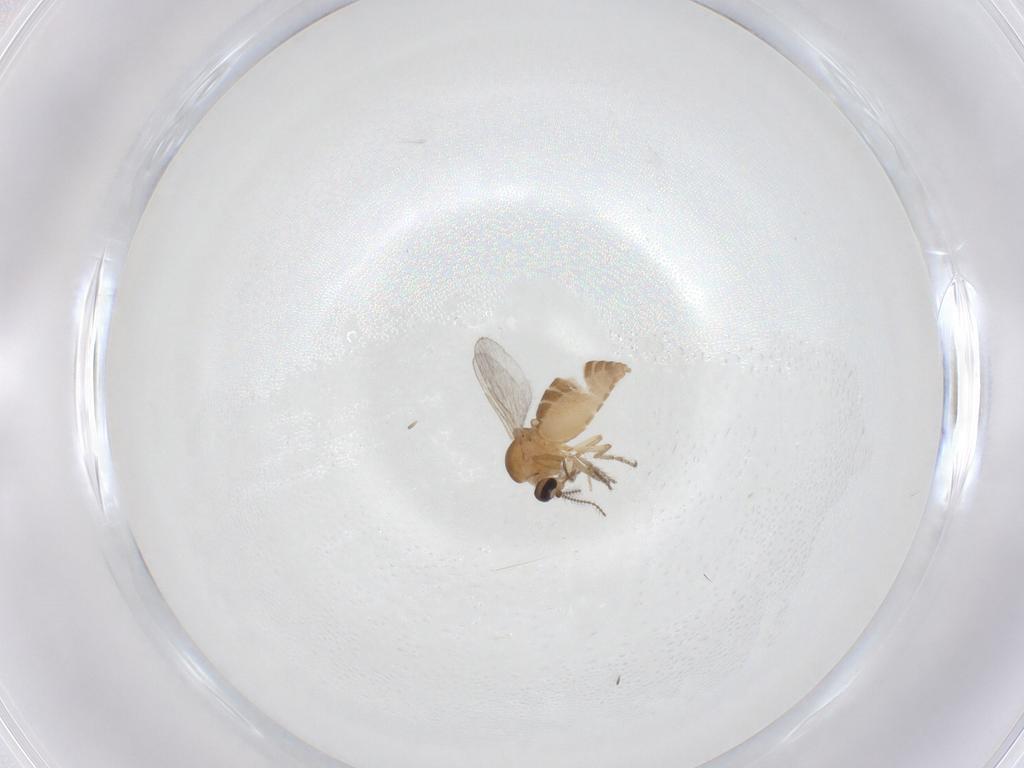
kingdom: Animalia
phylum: Arthropoda
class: Insecta
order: Diptera
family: Ceratopogonidae
